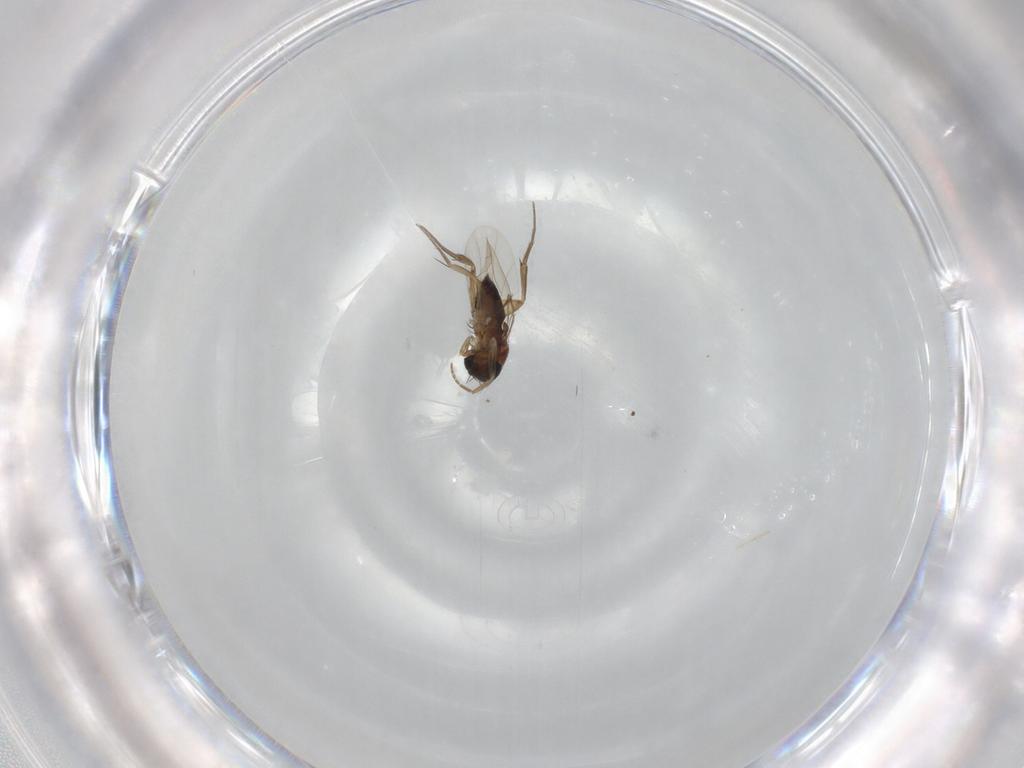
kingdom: Animalia
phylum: Arthropoda
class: Insecta
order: Diptera
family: Phoridae
